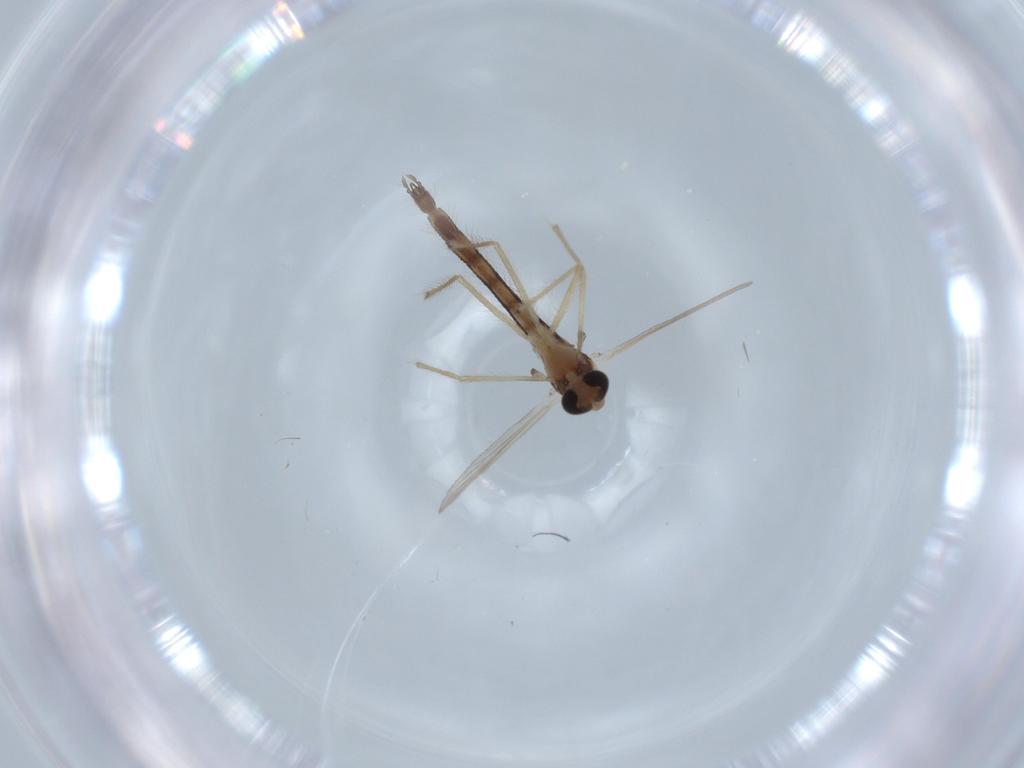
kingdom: Animalia
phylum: Arthropoda
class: Insecta
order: Diptera
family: Chironomidae
